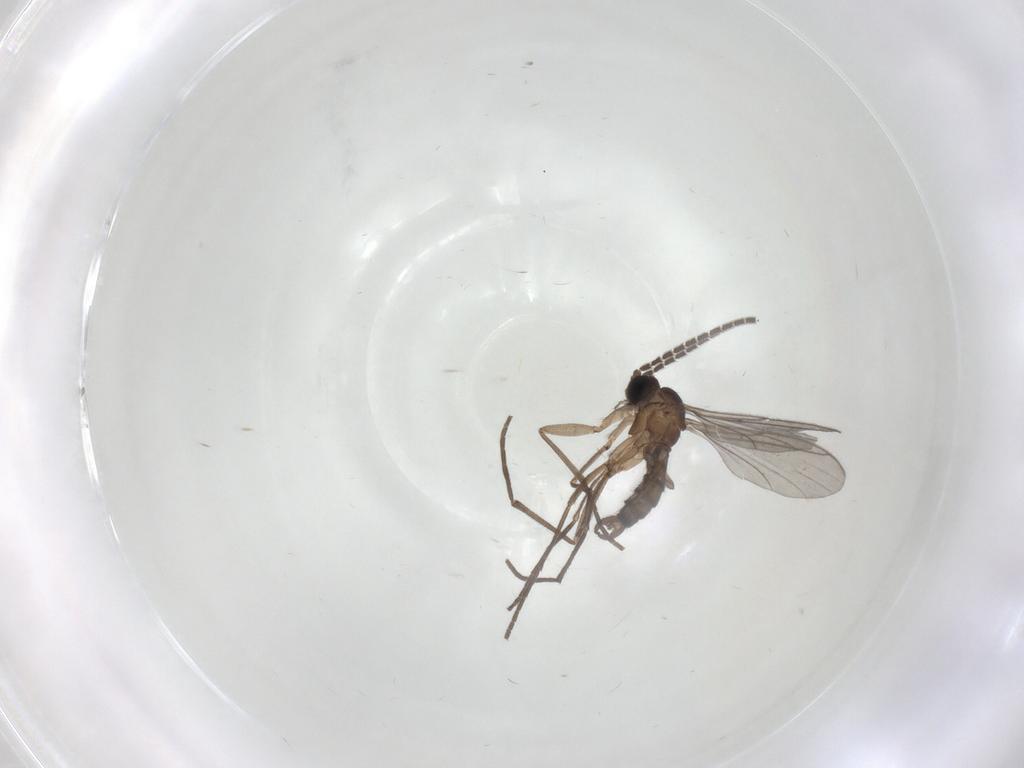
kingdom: Animalia
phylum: Arthropoda
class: Insecta
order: Diptera
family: Sciaridae
